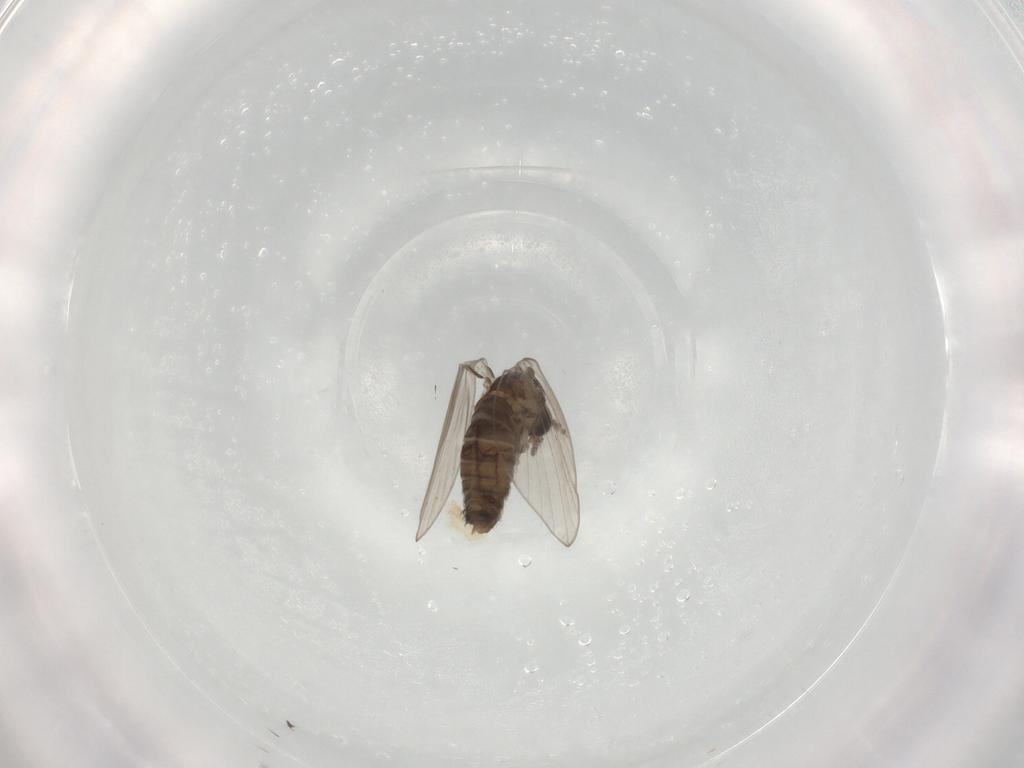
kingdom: Animalia
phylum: Arthropoda
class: Insecta
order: Diptera
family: Psychodidae
